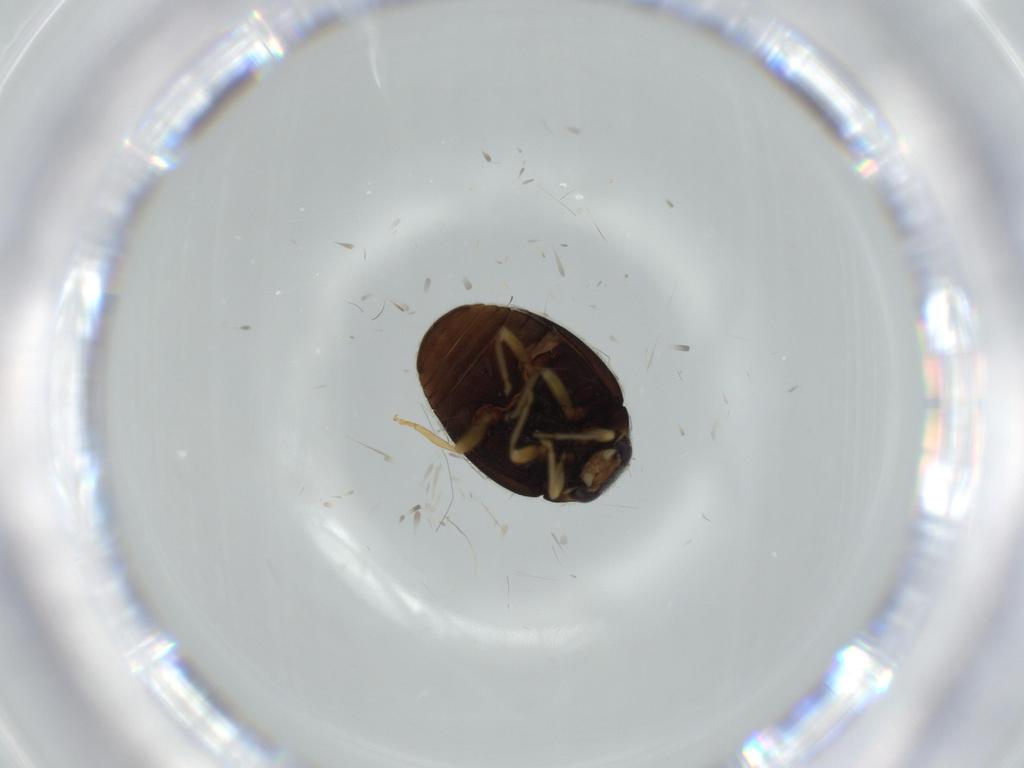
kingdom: Animalia
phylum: Arthropoda
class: Insecta
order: Coleoptera
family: Coccinellidae
